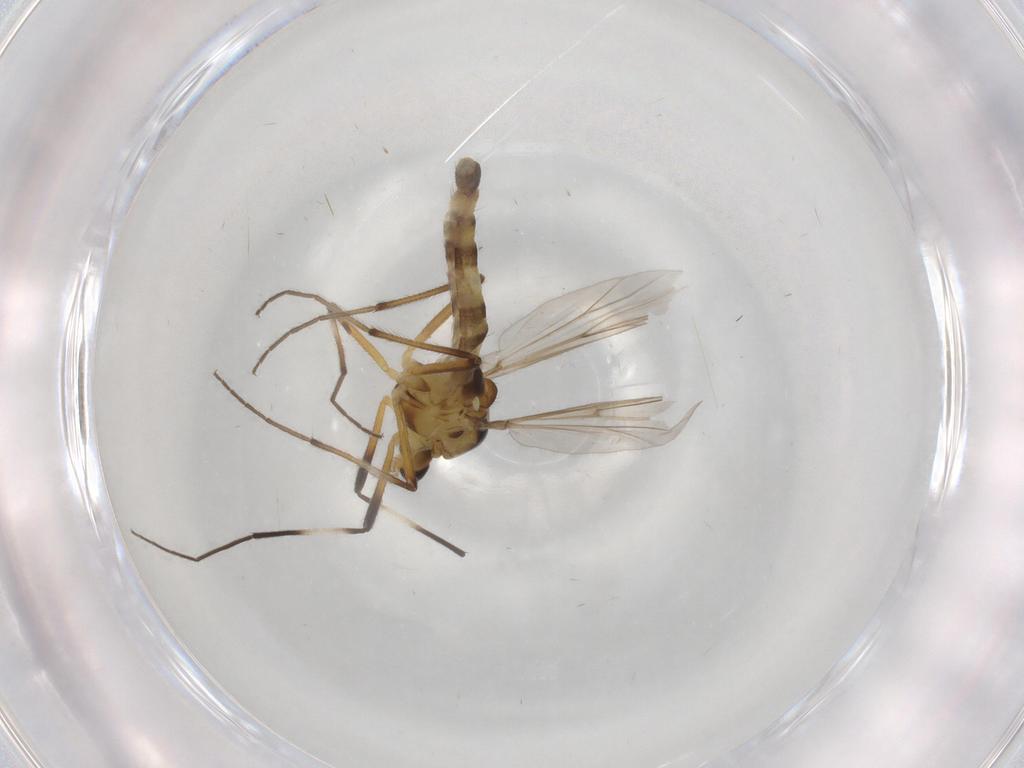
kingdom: Animalia
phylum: Arthropoda
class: Insecta
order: Diptera
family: Chironomidae
